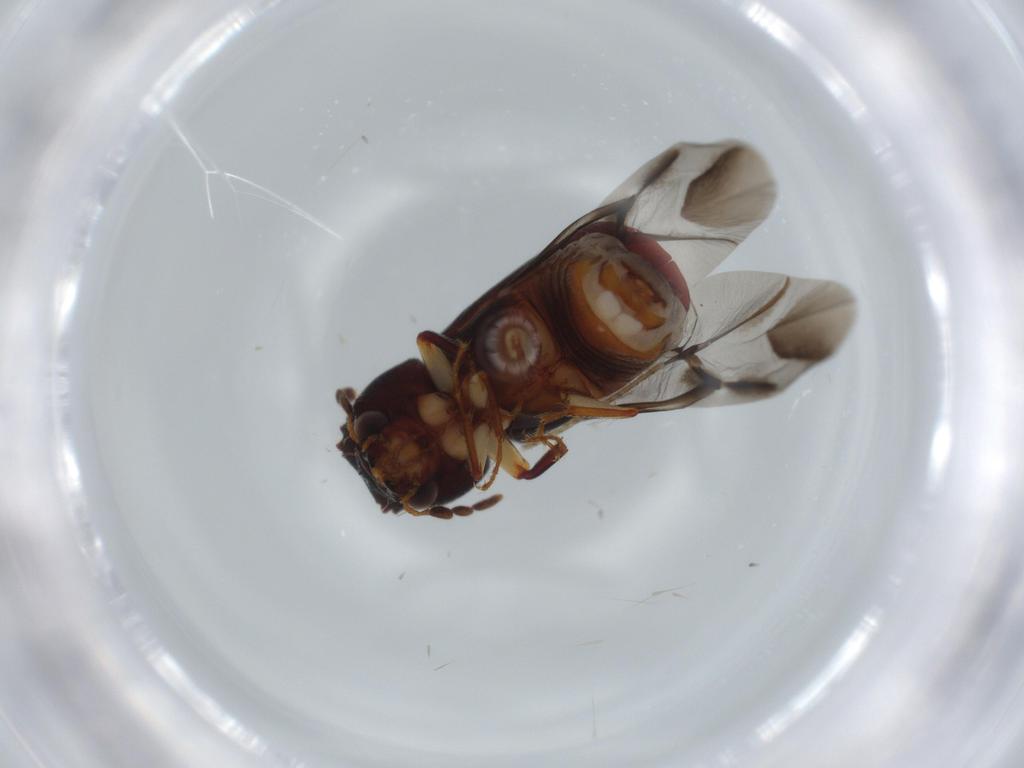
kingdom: Animalia
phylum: Arthropoda
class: Insecta
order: Coleoptera
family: Bostrichidae
